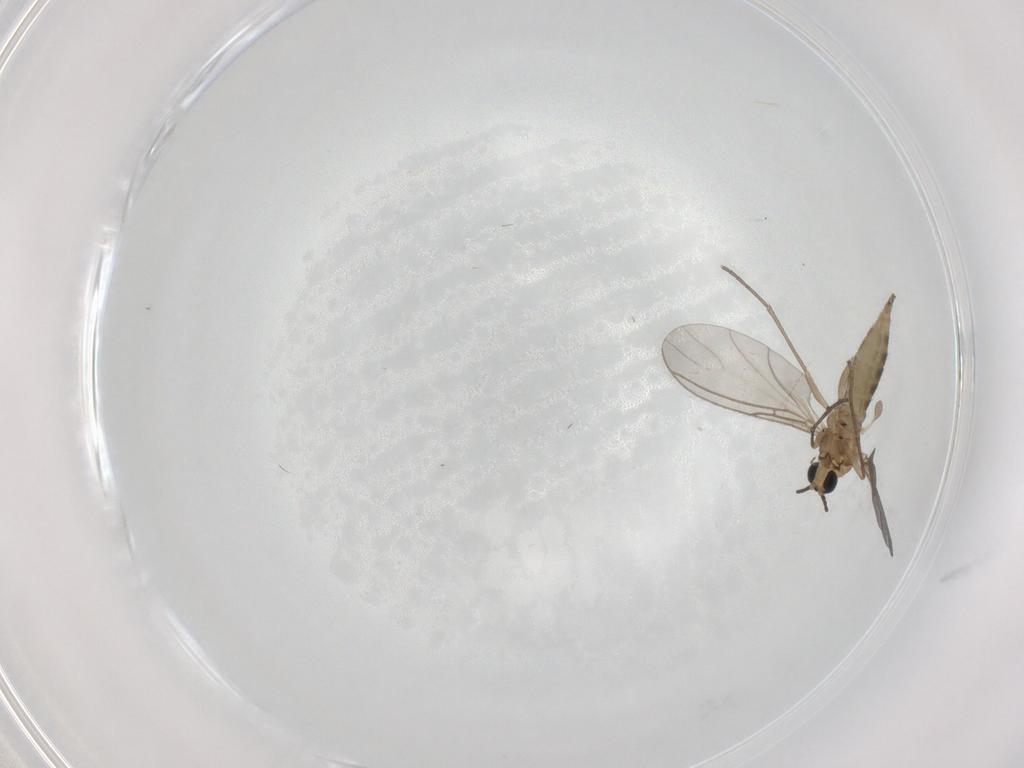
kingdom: Animalia
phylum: Arthropoda
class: Insecta
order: Diptera
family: Sciaridae
